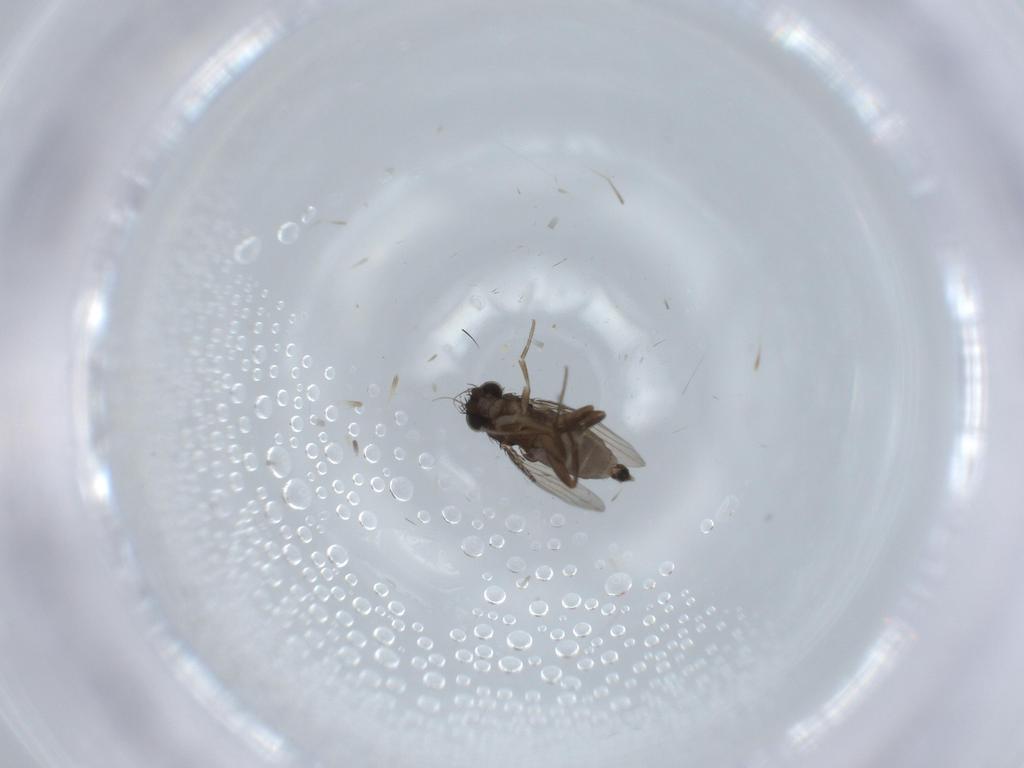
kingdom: Animalia
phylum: Arthropoda
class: Insecta
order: Diptera
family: Phoridae
